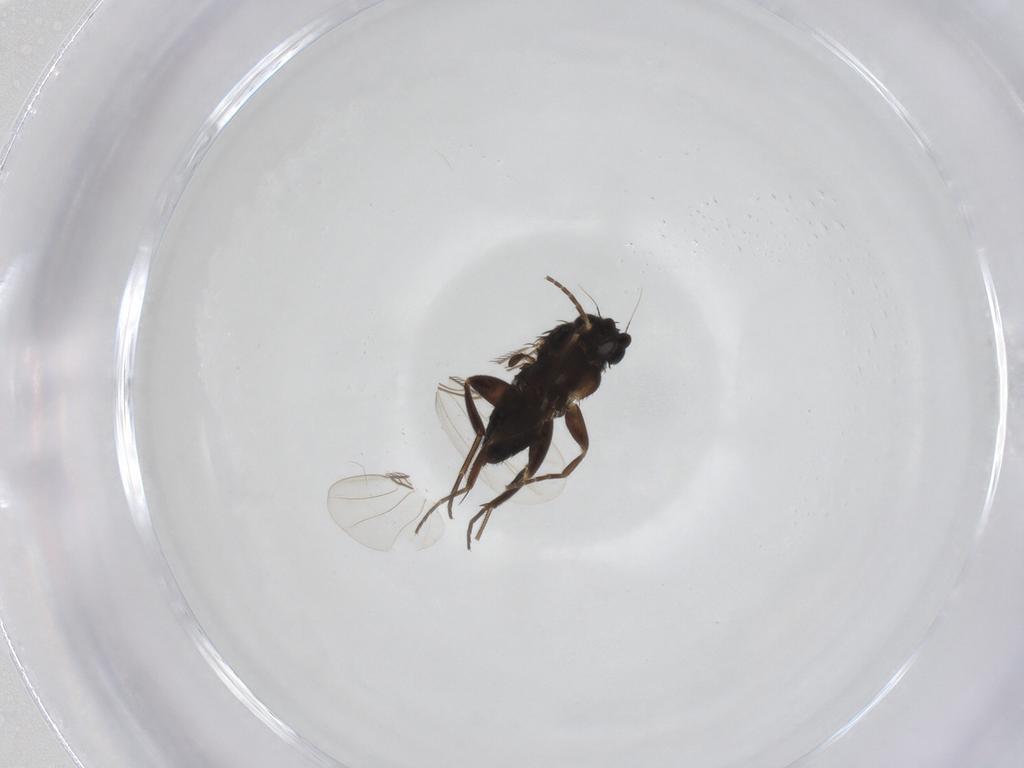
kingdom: Animalia
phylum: Arthropoda
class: Insecta
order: Diptera
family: Phoridae
